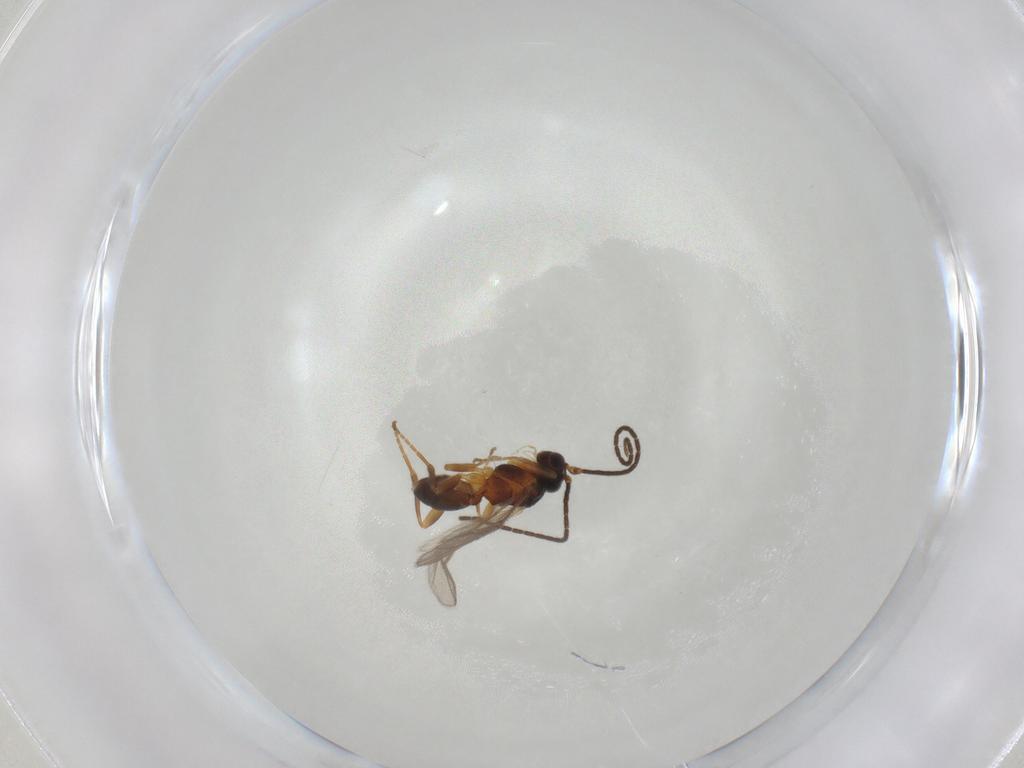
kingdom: Animalia
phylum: Arthropoda
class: Insecta
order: Hymenoptera
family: Braconidae
